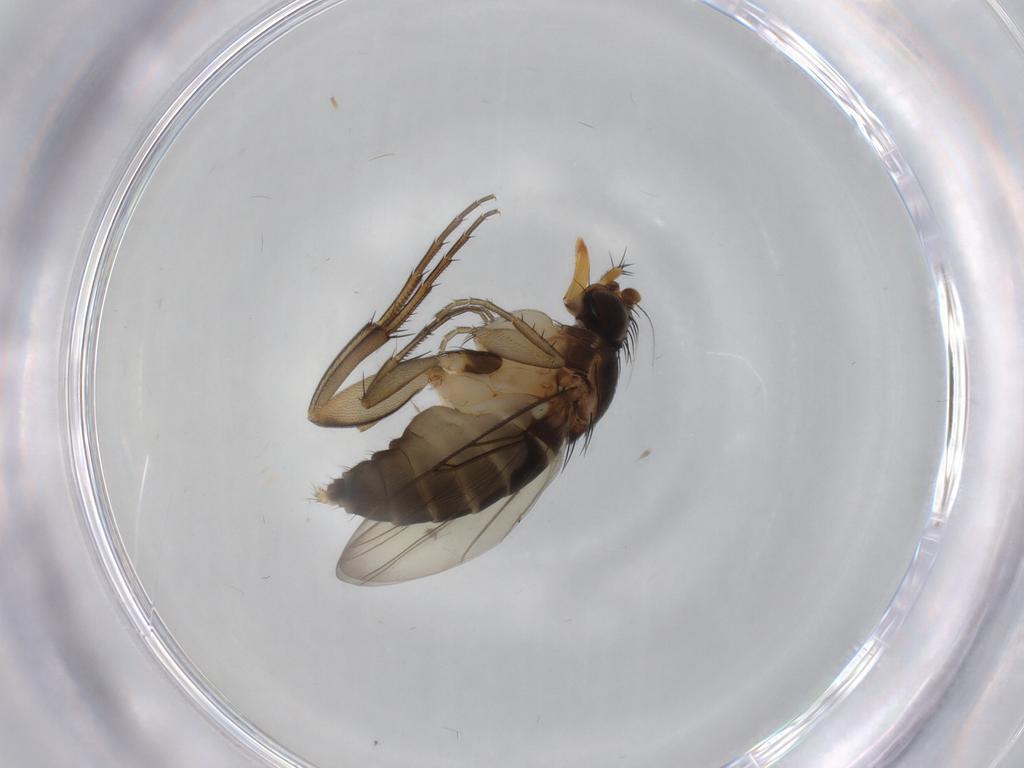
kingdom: Animalia
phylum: Arthropoda
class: Insecta
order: Diptera
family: Phoridae
